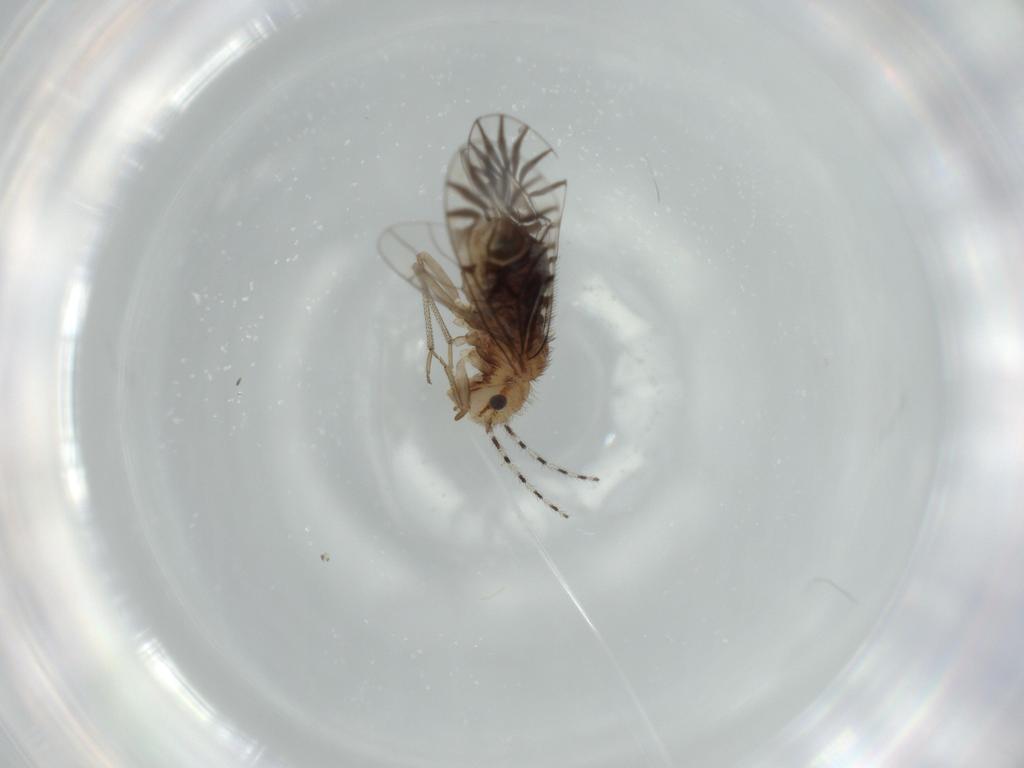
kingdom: Animalia
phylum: Arthropoda
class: Insecta
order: Psocodea
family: Amphipsocidae
